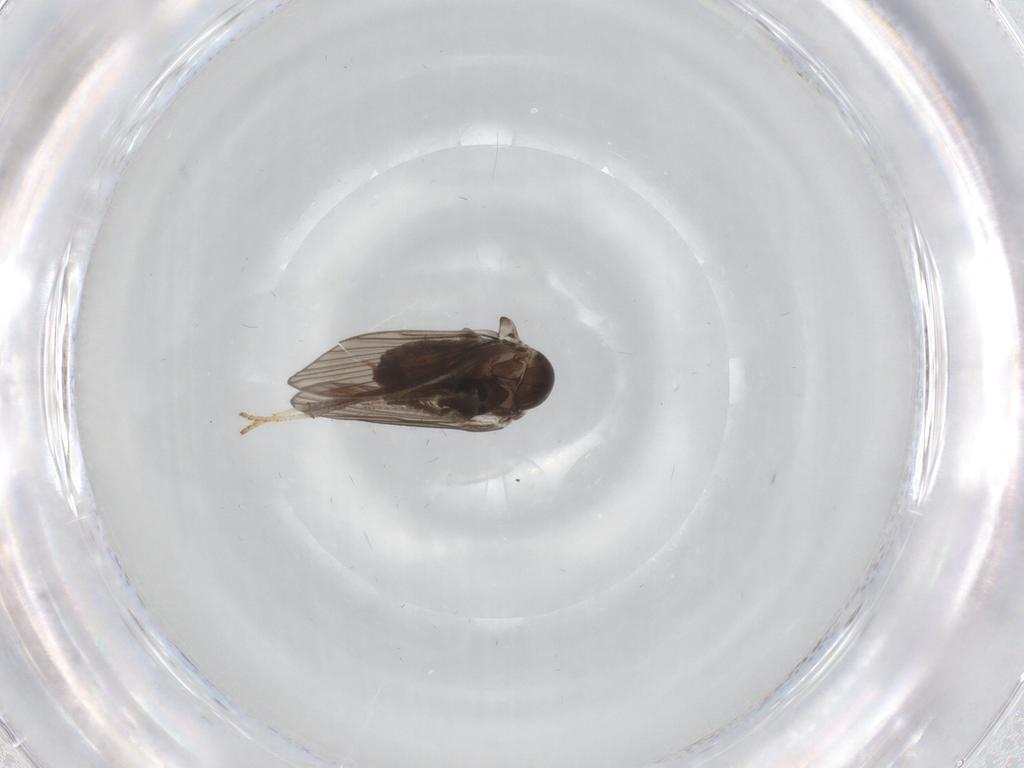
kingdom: Animalia
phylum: Arthropoda
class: Insecta
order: Diptera
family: Psychodidae
